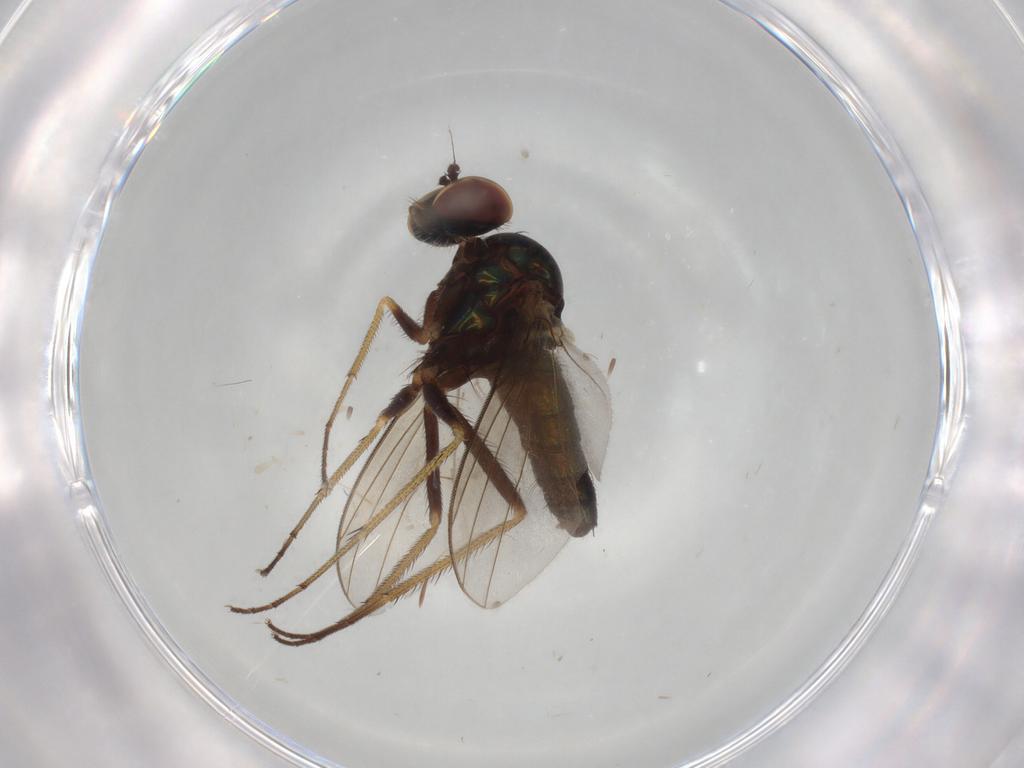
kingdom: Animalia
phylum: Arthropoda
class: Insecta
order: Diptera
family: Dolichopodidae
